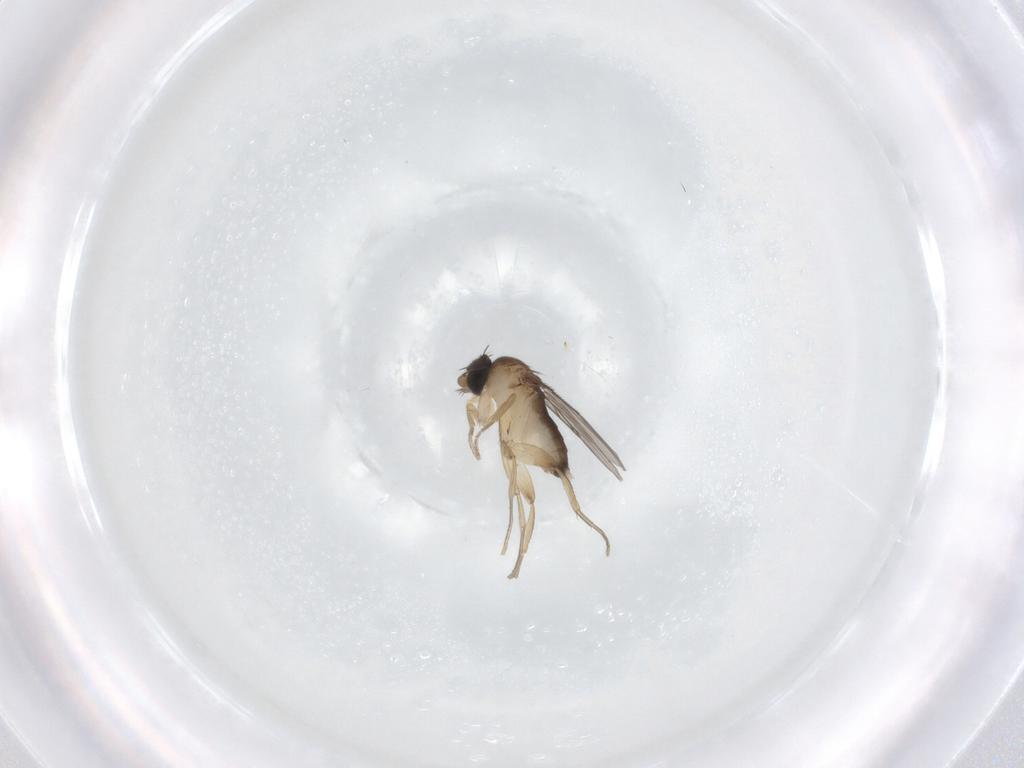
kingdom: Animalia
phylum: Arthropoda
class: Insecta
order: Diptera
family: Phoridae
